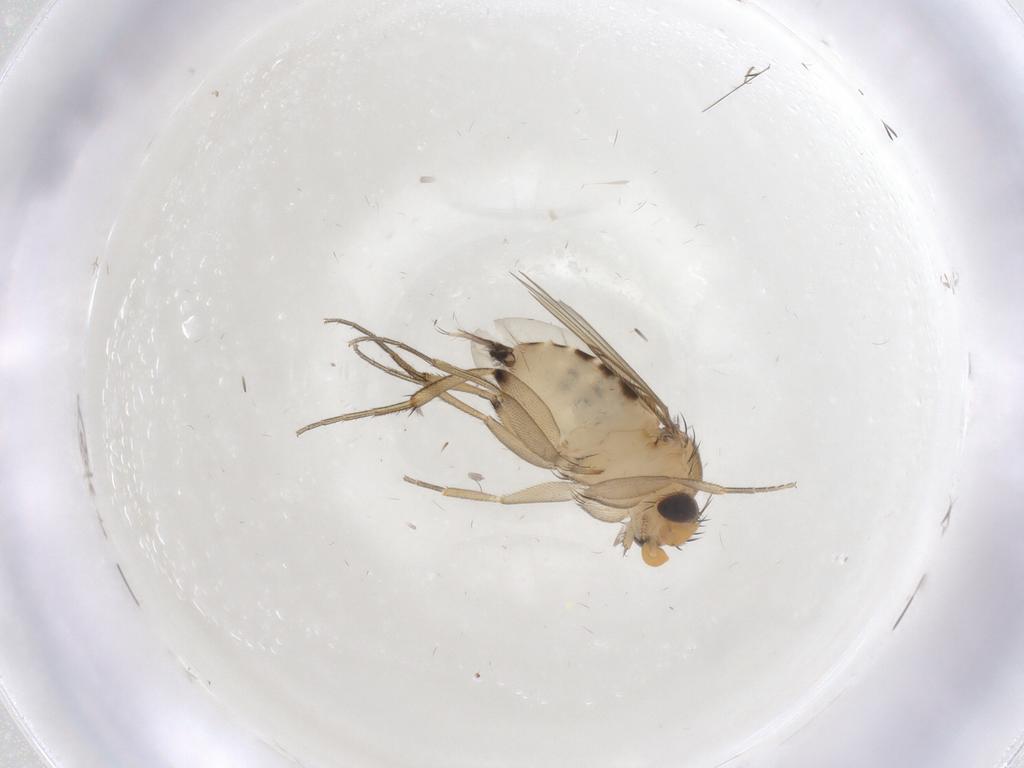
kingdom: Animalia
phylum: Arthropoda
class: Insecta
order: Diptera
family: Phoridae
